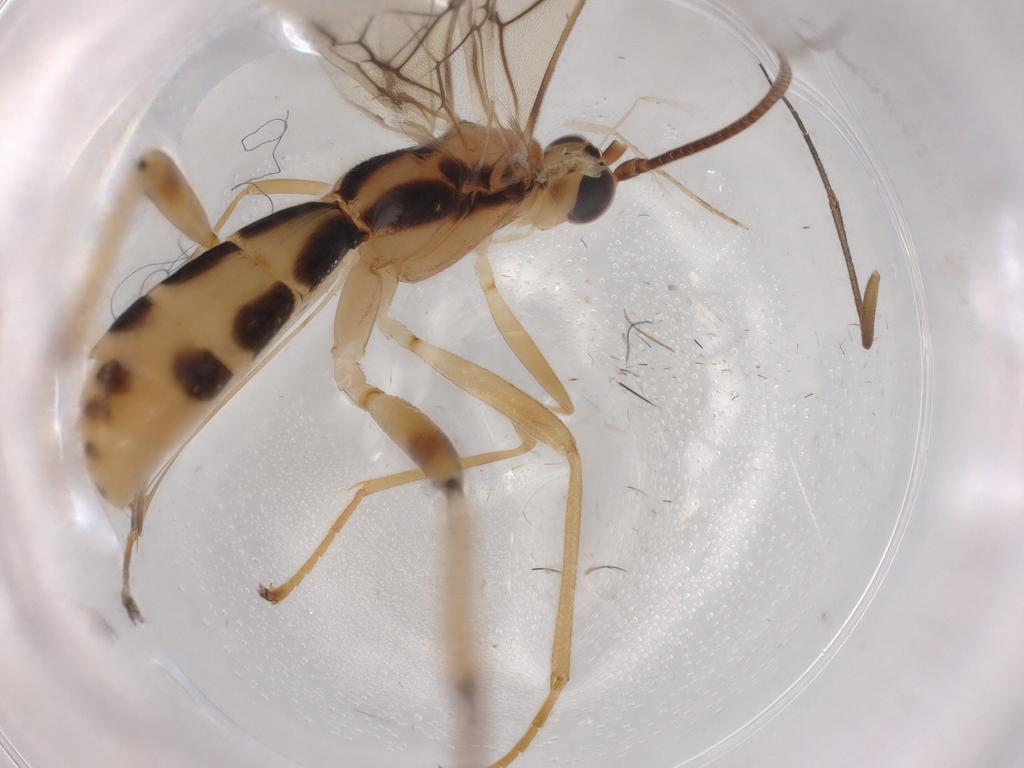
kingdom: Animalia
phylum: Arthropoda
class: Insecta
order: Hymenoptera
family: Braconidae
